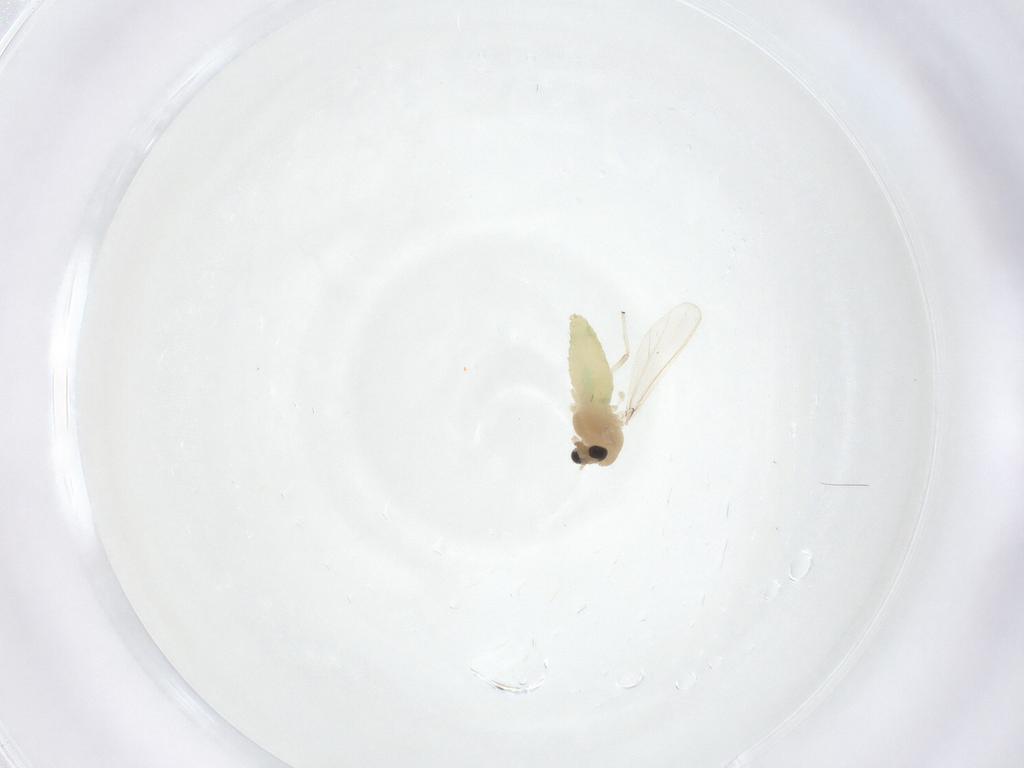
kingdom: Animalia
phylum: Arthropoda
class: Insecta
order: Diptera
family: Chironomidae
